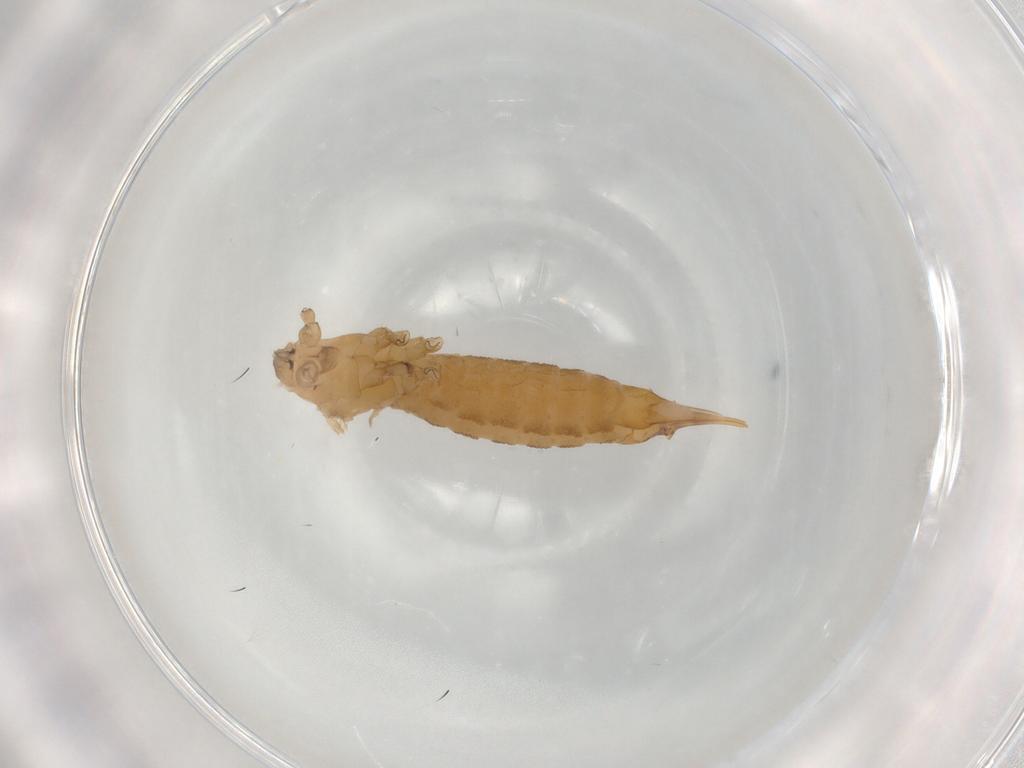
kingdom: Animalia
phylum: Arthropoda
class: Insecta
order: Diptera
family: Limoniidae
